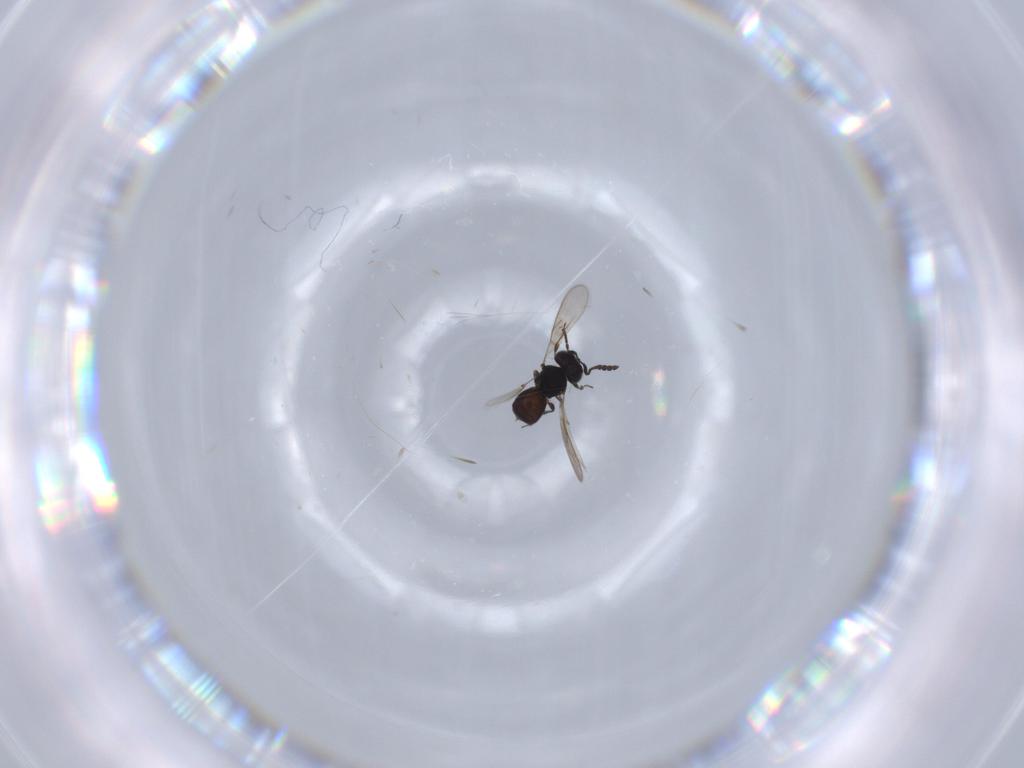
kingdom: Animalia
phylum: Arthropoda
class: Insecta
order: Hymenoptera
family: Scelionidae
